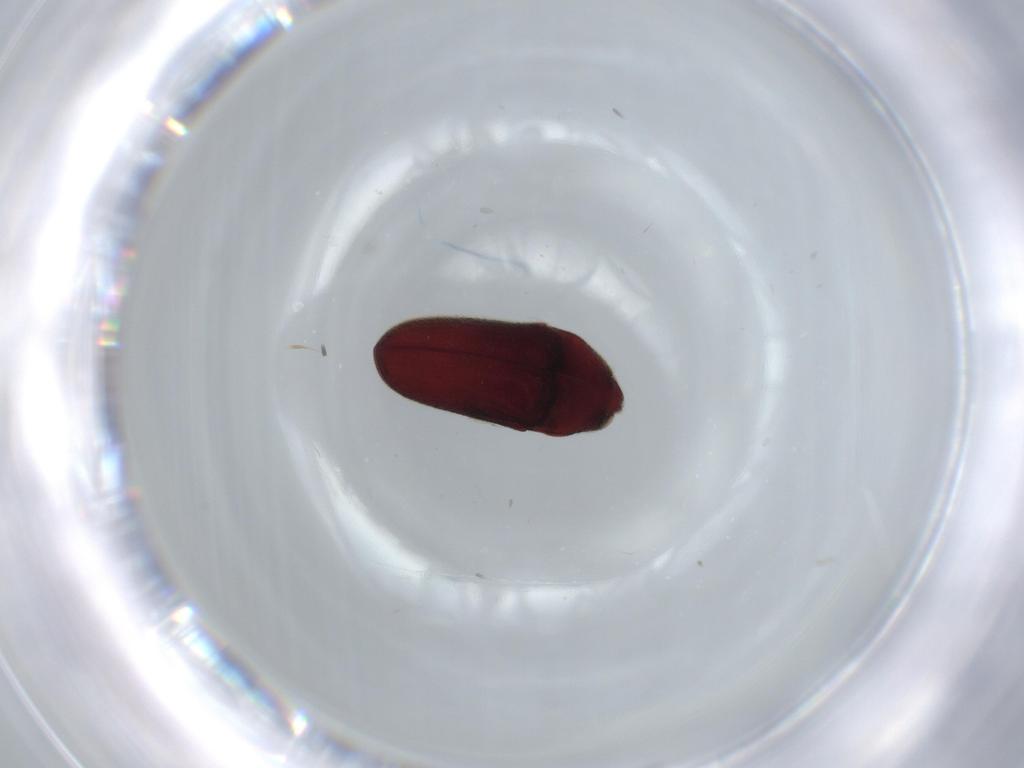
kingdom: Animalia
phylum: Arthropoda
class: Insecta
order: Coleoptera
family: Throscidae
